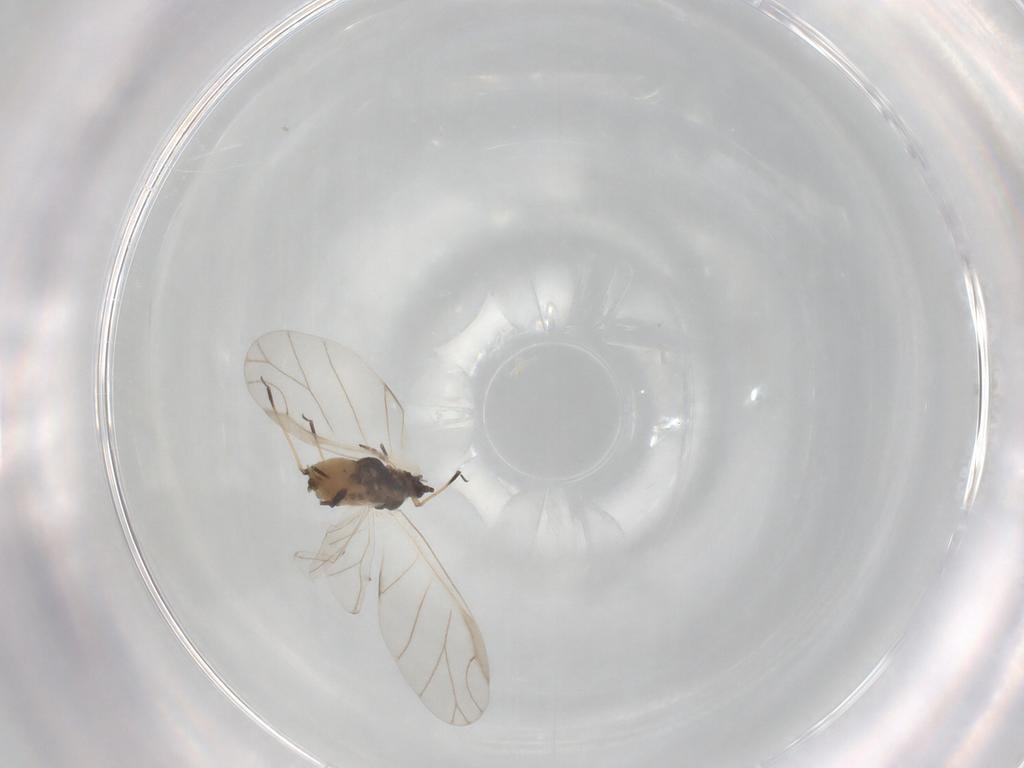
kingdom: Animalia
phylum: Arthropoda
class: Insecta
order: Hemiptera
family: Aphididae
